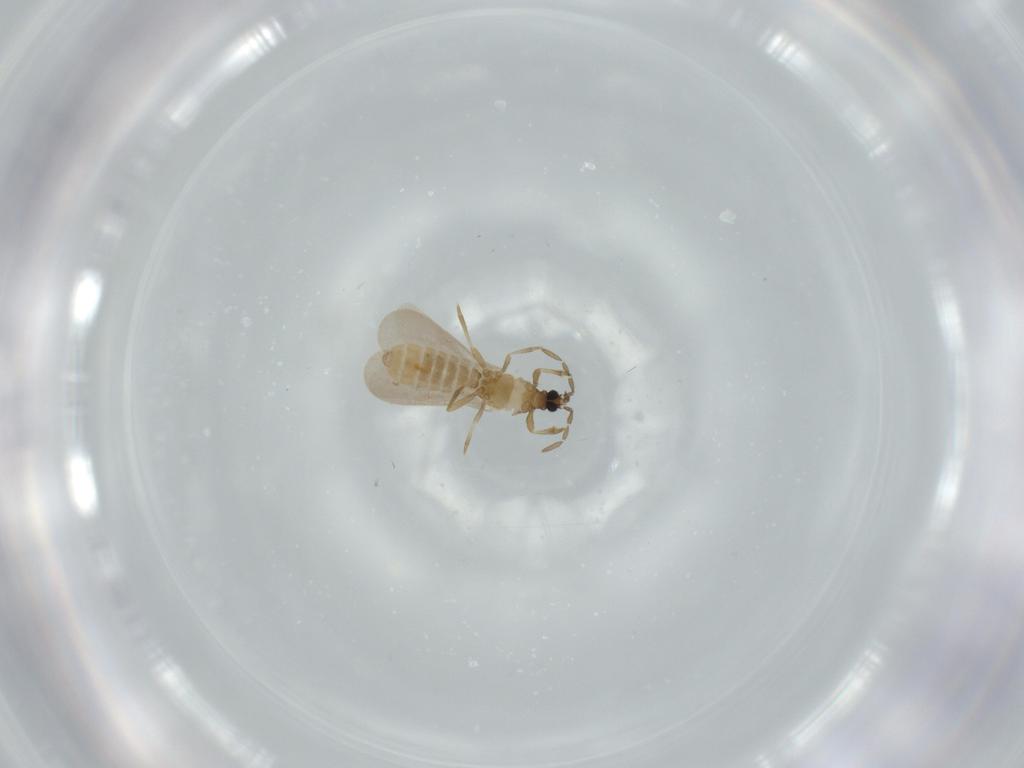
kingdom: Animalia
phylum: Arthropoda
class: Insecta
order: Hemiptera
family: Enicocephalidae
